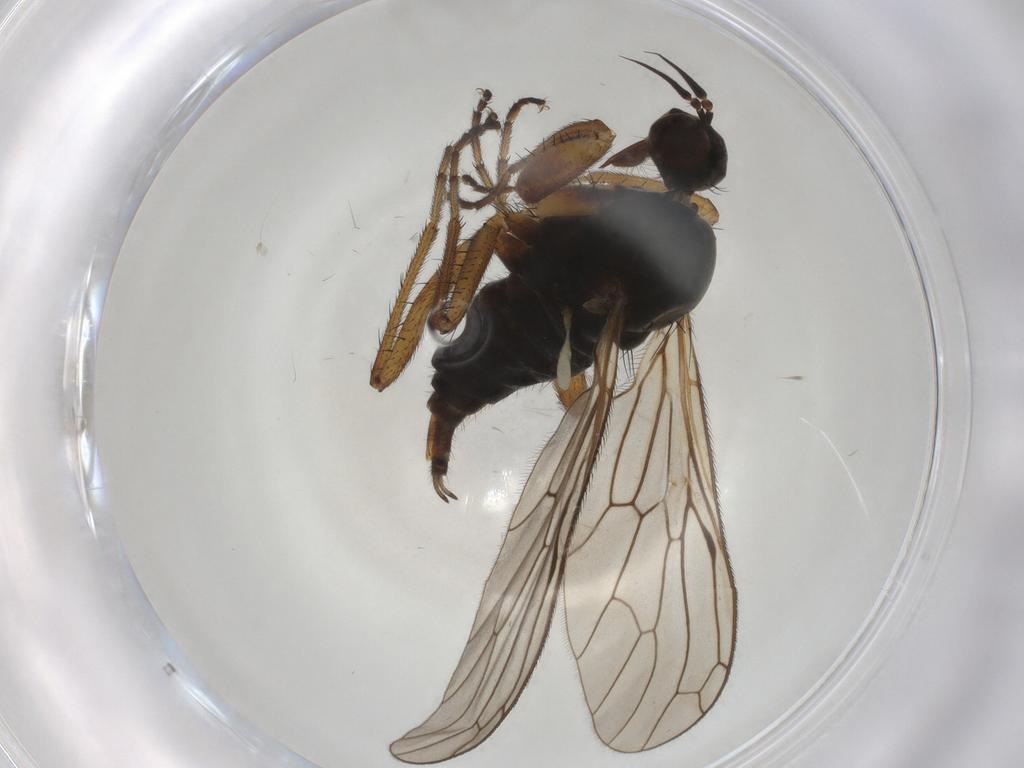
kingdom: Animalia
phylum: Arthropoda
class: Insecta
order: Diptera
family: Empididae
